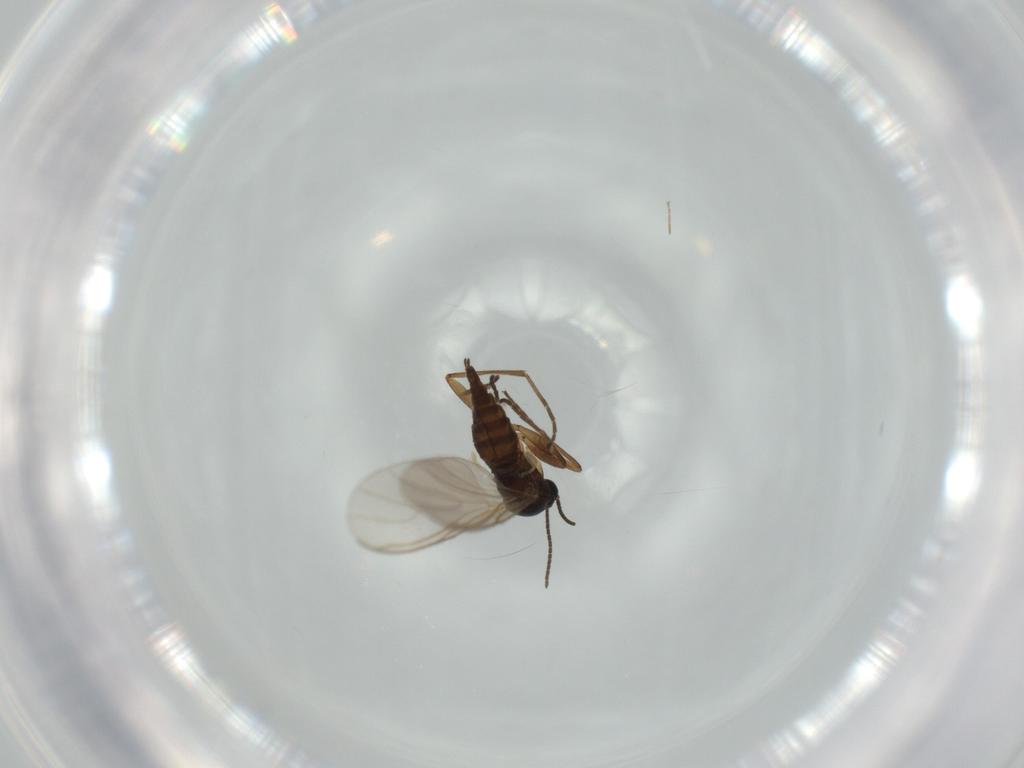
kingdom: Animalia
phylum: Arthropoda
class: Insecta
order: Diptera
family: Sciaridae
